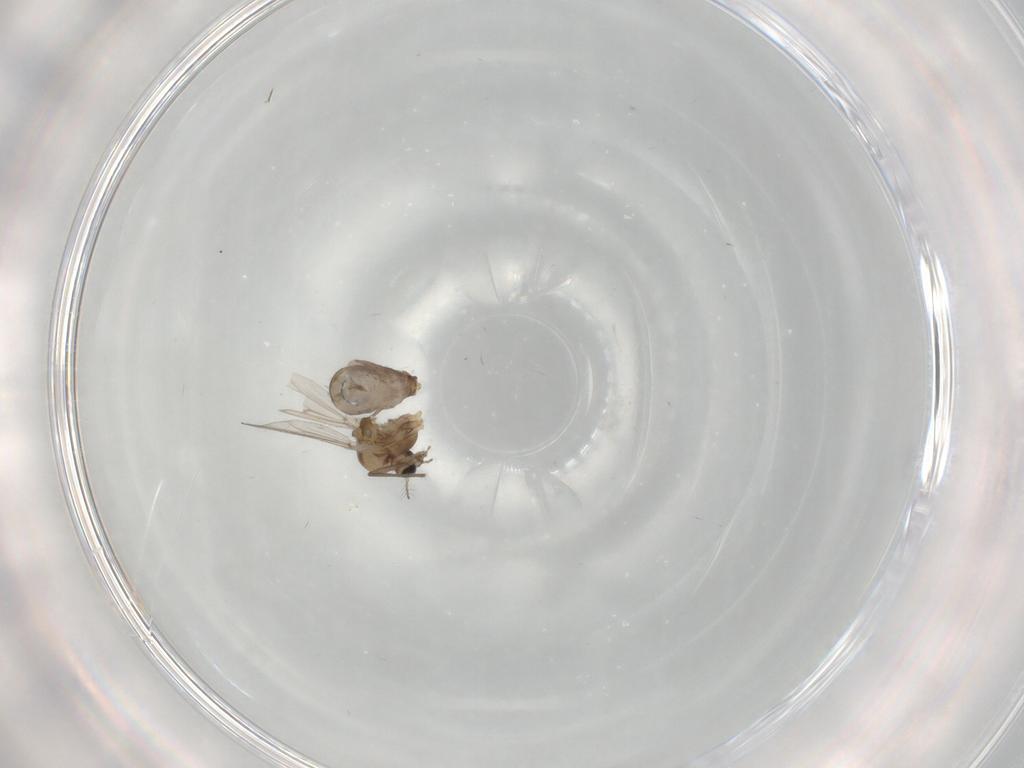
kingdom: Animalia
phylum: Arthropoda
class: Insecta
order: Diptera
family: Chironomidae
